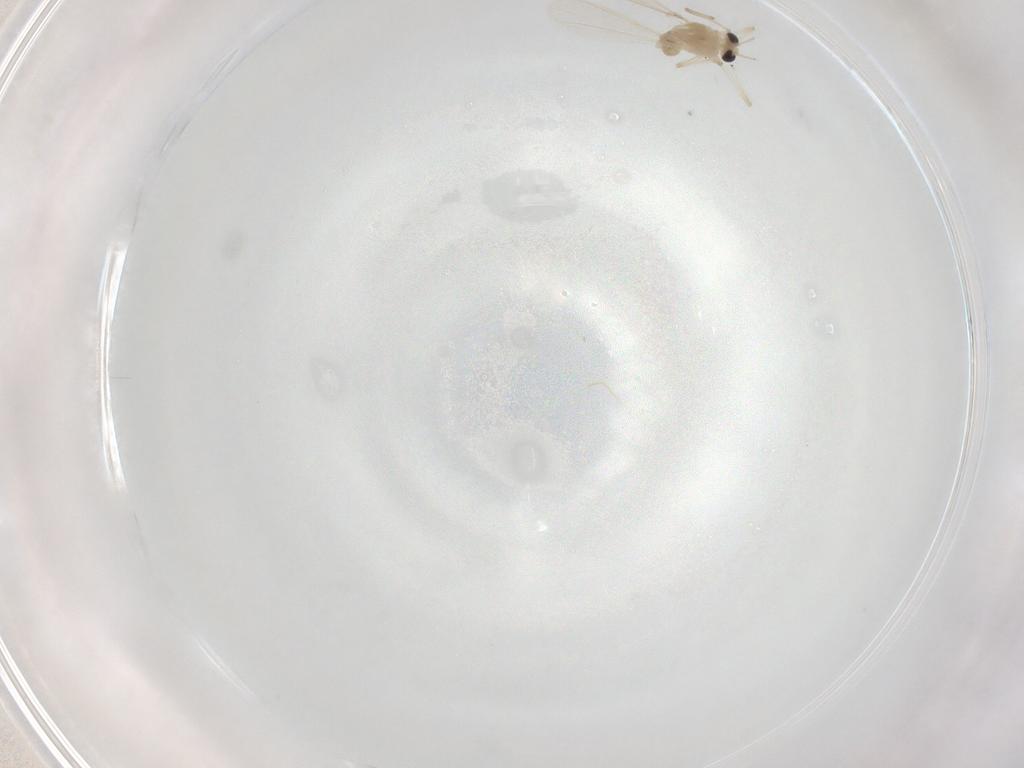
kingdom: Animalia
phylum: Arthropoda
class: Insecta
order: Diptera
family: Chironomidae
